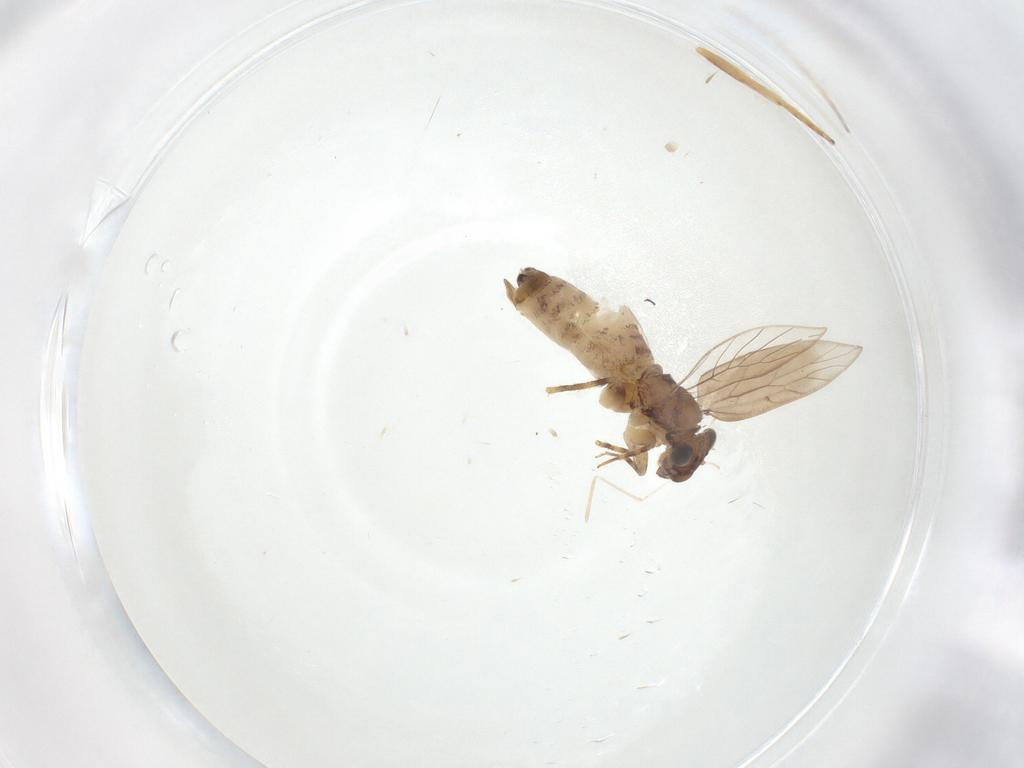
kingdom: Animalia
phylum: Arthropoda
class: Insecta
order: Psocodea
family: Lepidopsocidae
